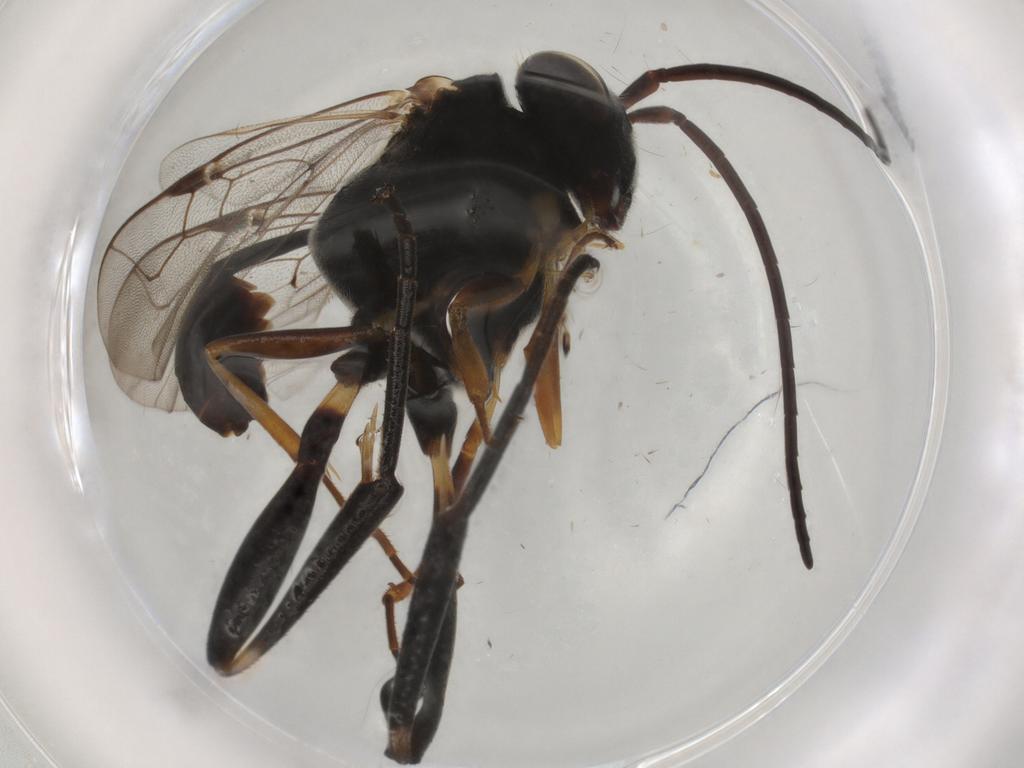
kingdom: Animalia
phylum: Arthropoda
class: Insecta
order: Hymenoptera
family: Evaniidae
